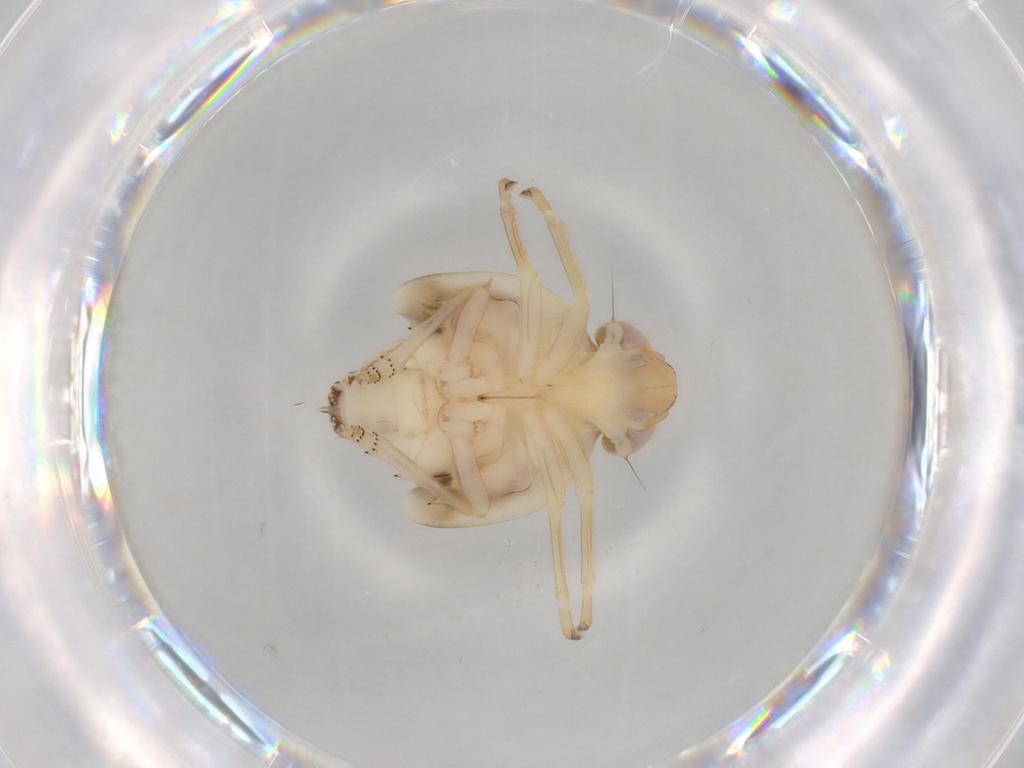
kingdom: Animalia
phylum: Arthropoda
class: Insecta
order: Hemiptera
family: Nogodinidae
